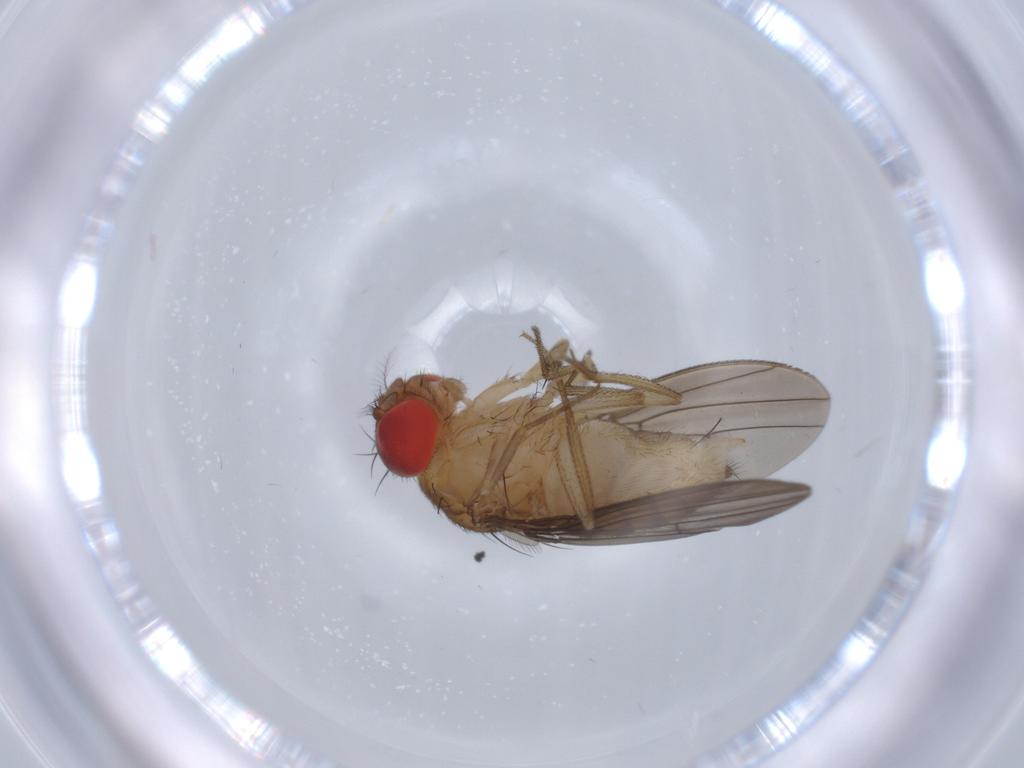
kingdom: Animalia
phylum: Arthropoda
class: Insecta
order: Diptera
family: Drosophilidae
